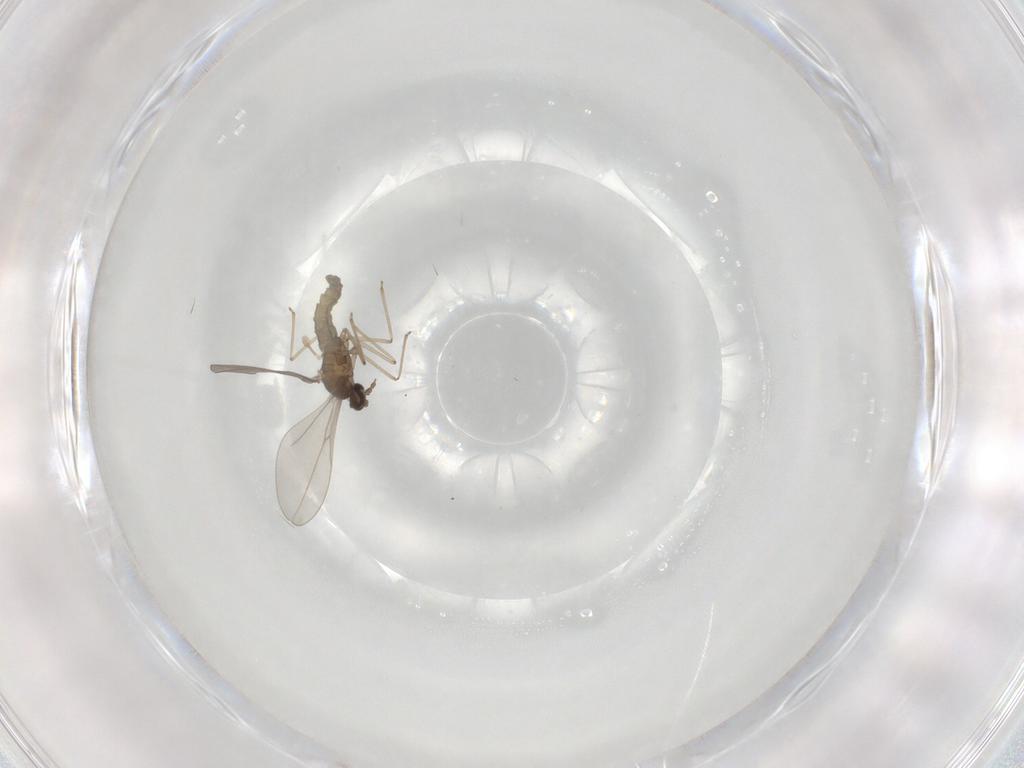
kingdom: Animalia
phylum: Arthropoda
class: Insecta
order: Diptera
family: Cecidomyiidae
